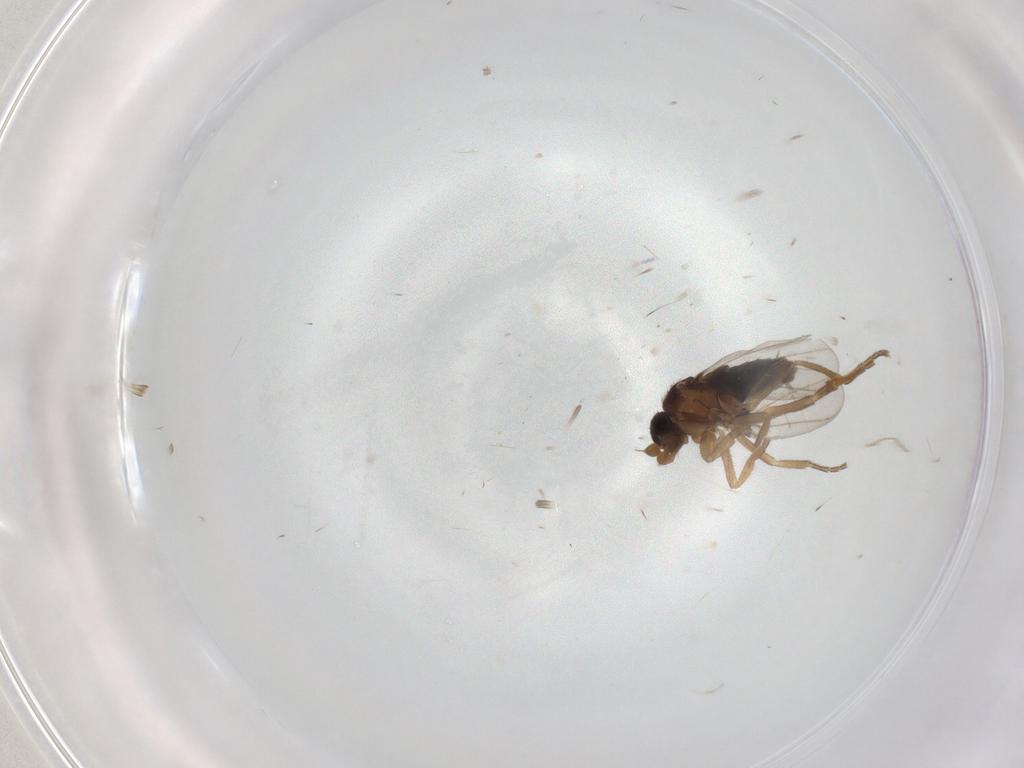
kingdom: Animalia
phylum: Arthropoda
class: Insecta
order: Diptera
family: Tachinidae
